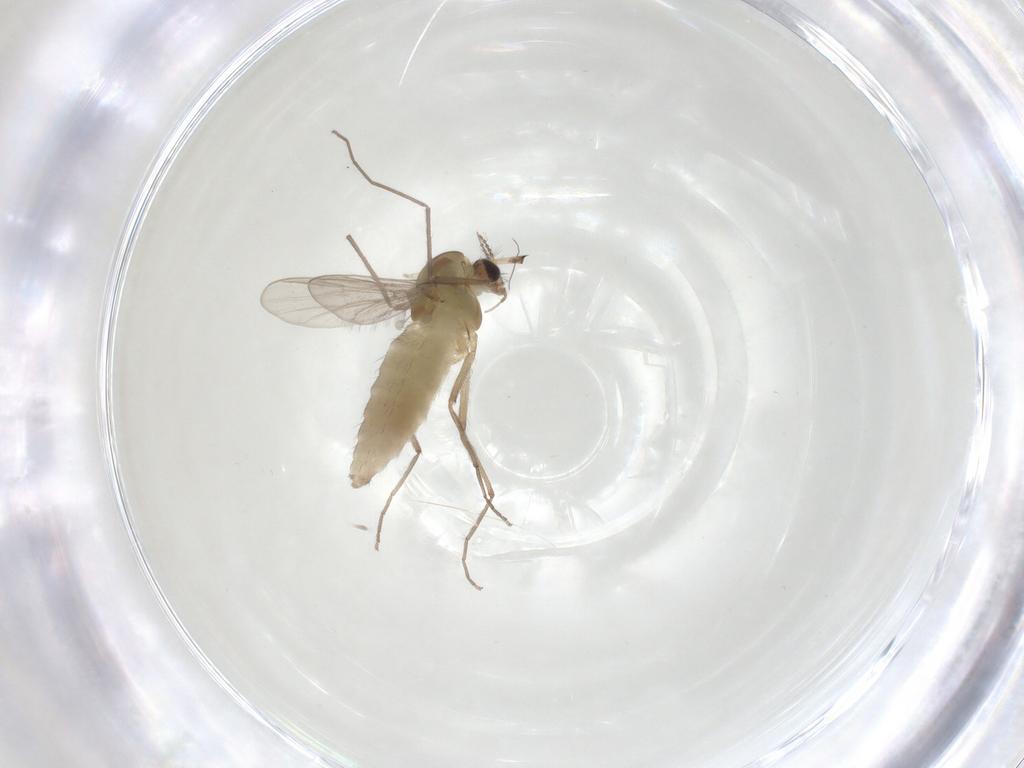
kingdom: Animalia
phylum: Arthropoda
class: Insecta
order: Diptera
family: Chironomidae
